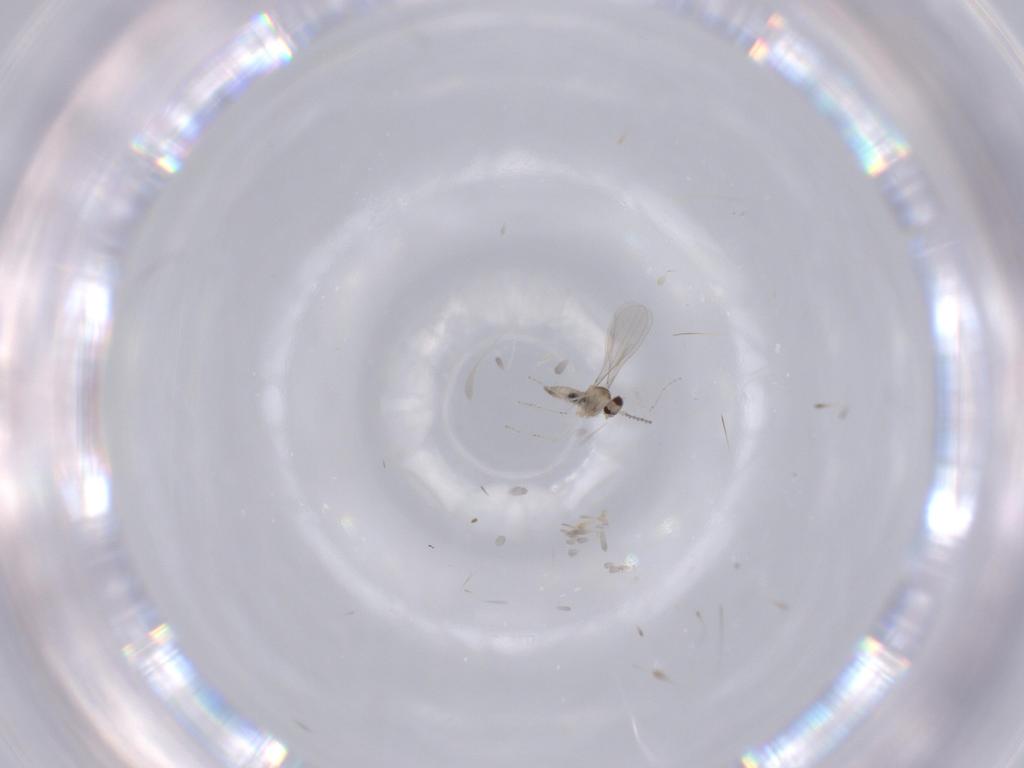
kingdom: Animalia
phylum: Arthropoda
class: Insecta
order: Diptera
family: Cecidomyiidae
